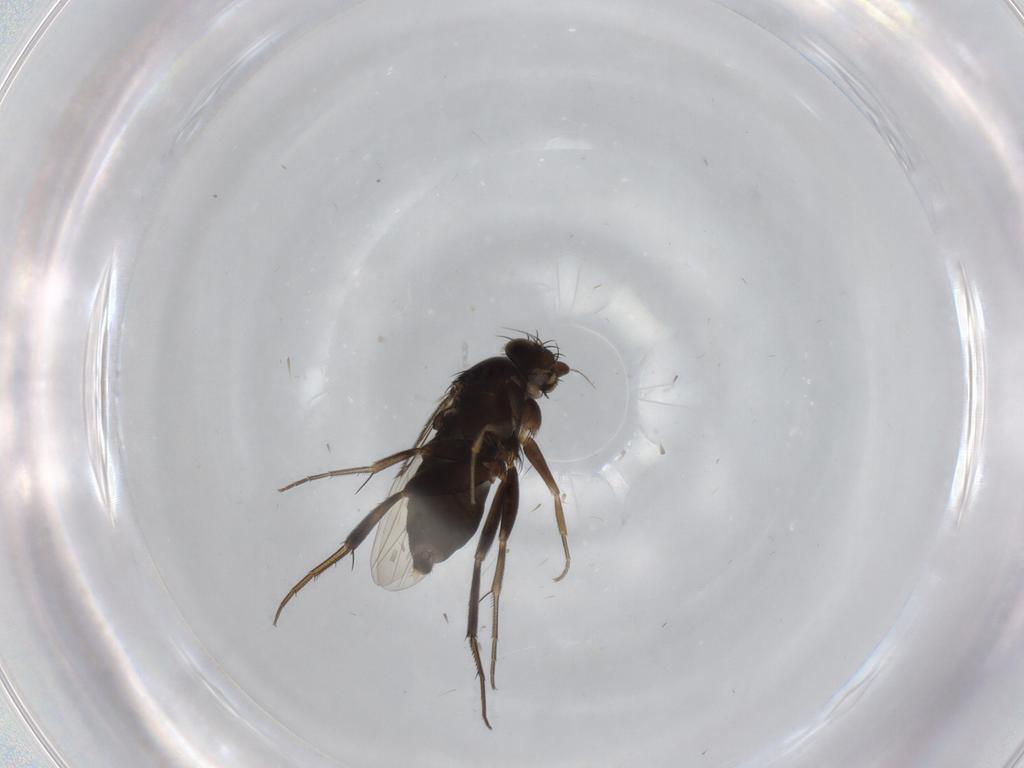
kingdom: Animalia
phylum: Arthropoda
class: Insecta
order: Diptera
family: Phoridae
